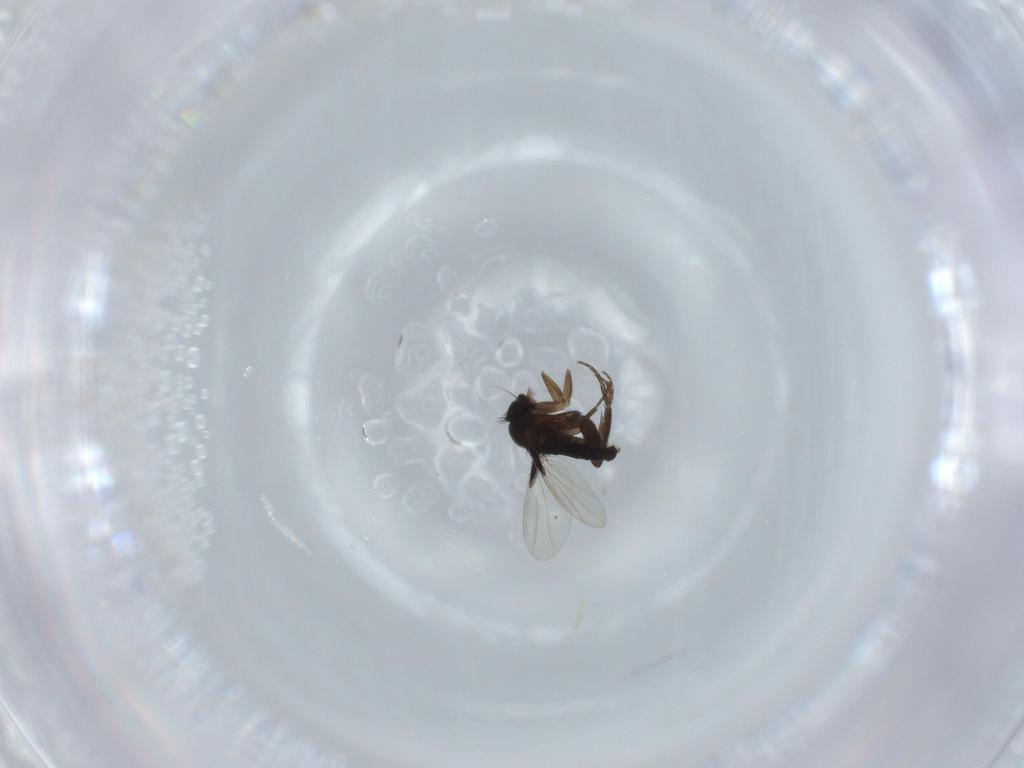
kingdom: Animalia
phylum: Arthropoda
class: Insecta
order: Diptera
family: Phoridae
